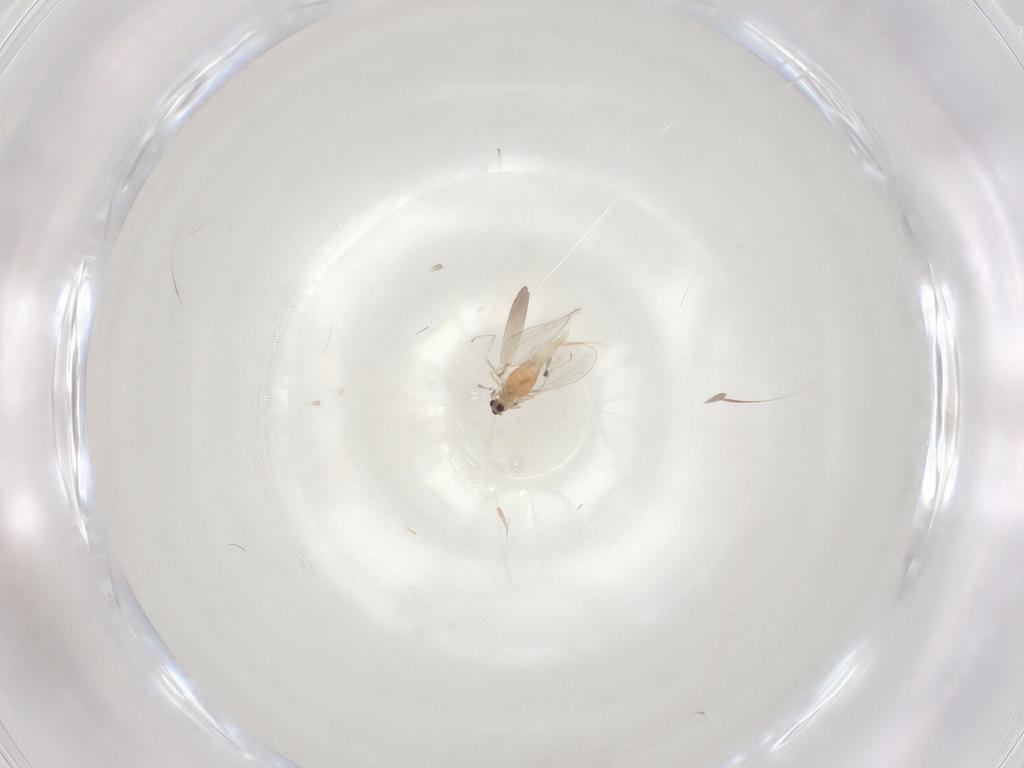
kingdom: Animalia
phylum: Arthropoda
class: Insecta
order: Diptera
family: Cecidomyiidae
